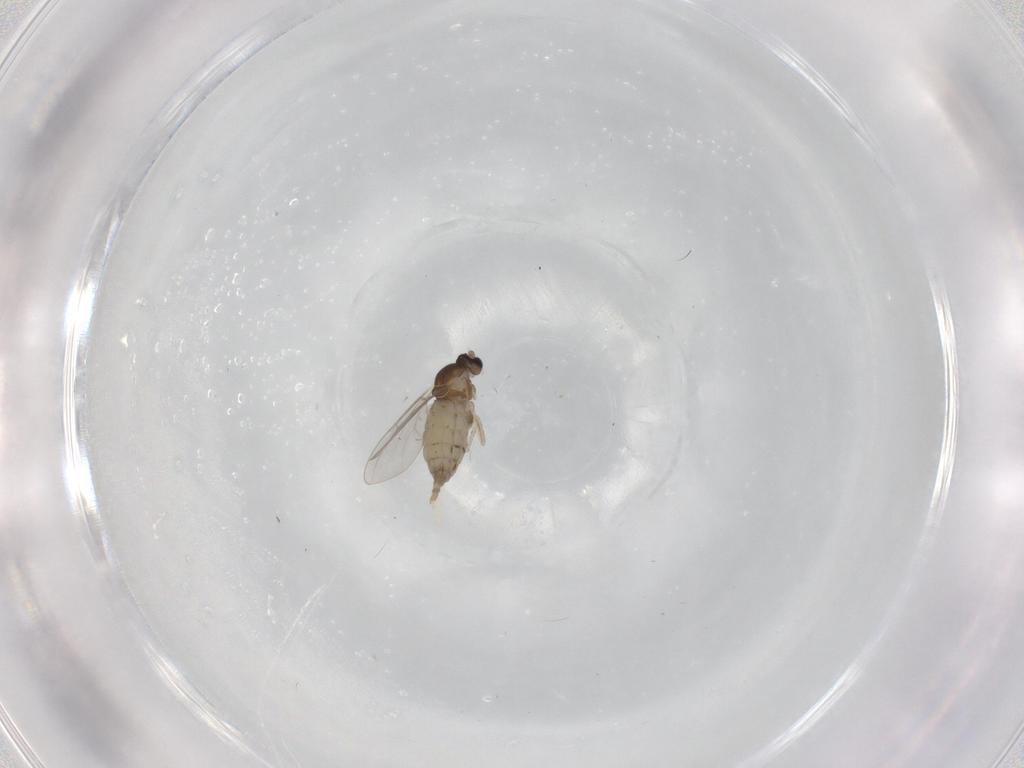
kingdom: Animalia
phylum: Arthropoda
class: Insecta
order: Diptera
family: Cecidomyiidae
